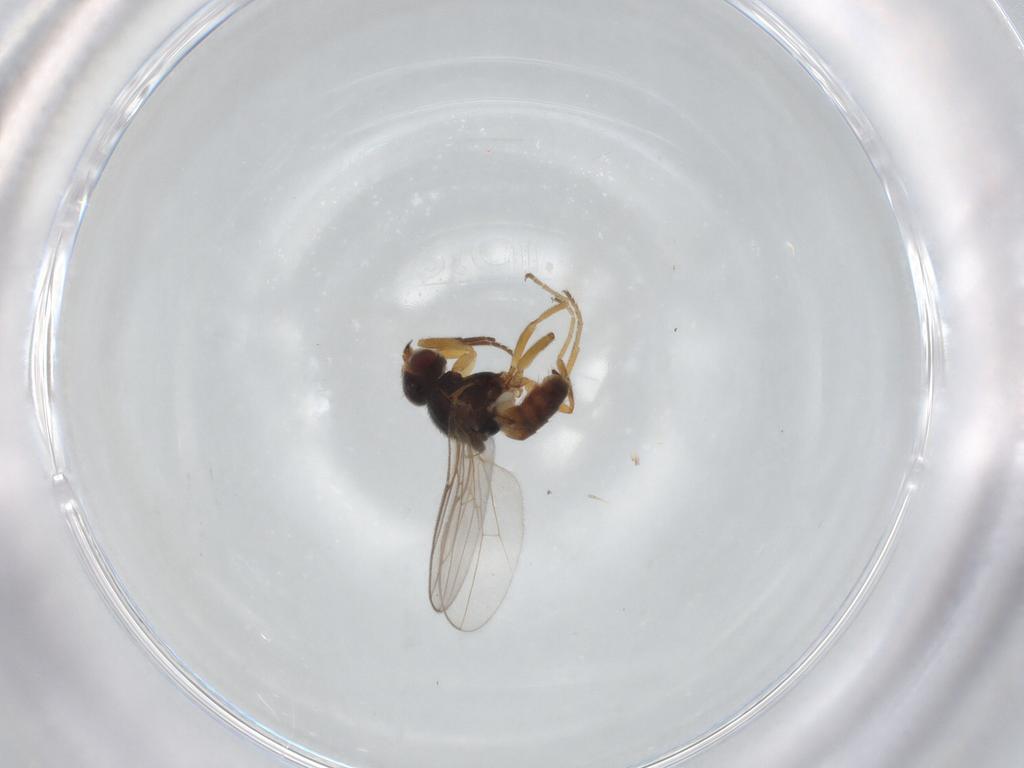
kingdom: Animalia
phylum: Arthropoda
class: Insecta
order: Diptera
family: Chloropidae
